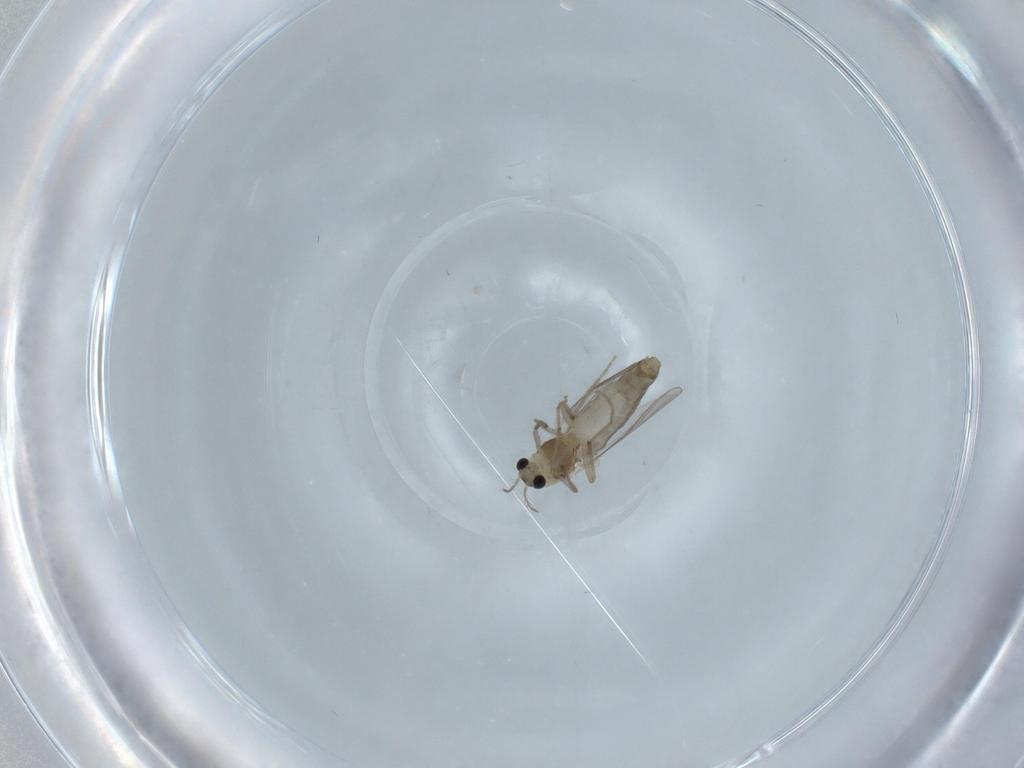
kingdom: Animalia
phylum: Arthropoda
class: Insecta
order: Diptera
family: Chironomidae
